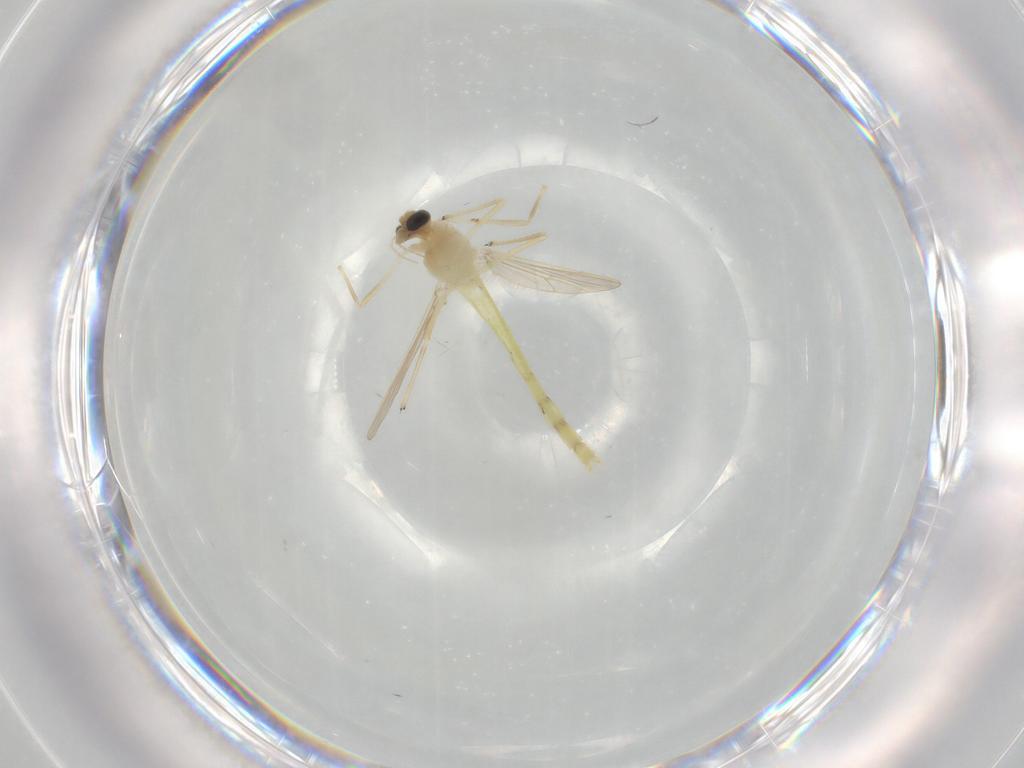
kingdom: Animalia
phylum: Arthropoda
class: Insecta
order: Diptera
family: Chironomidae
